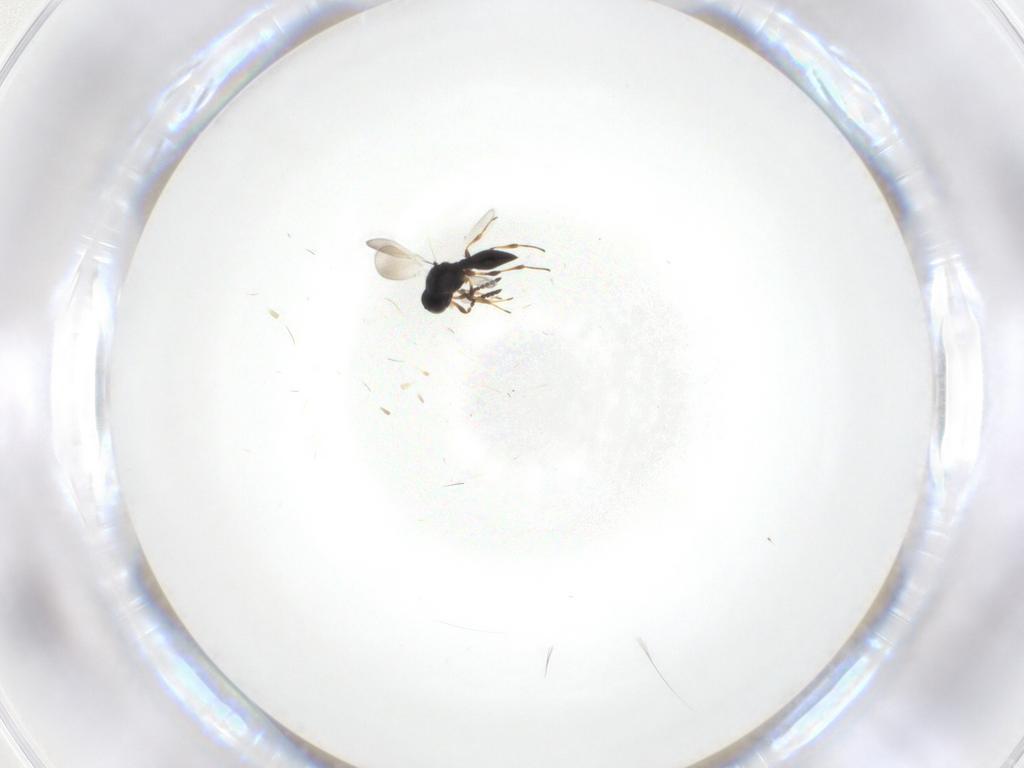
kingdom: Animalia
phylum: Arthropoda
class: Insecta
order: Hymenoptera
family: Platygastridae
